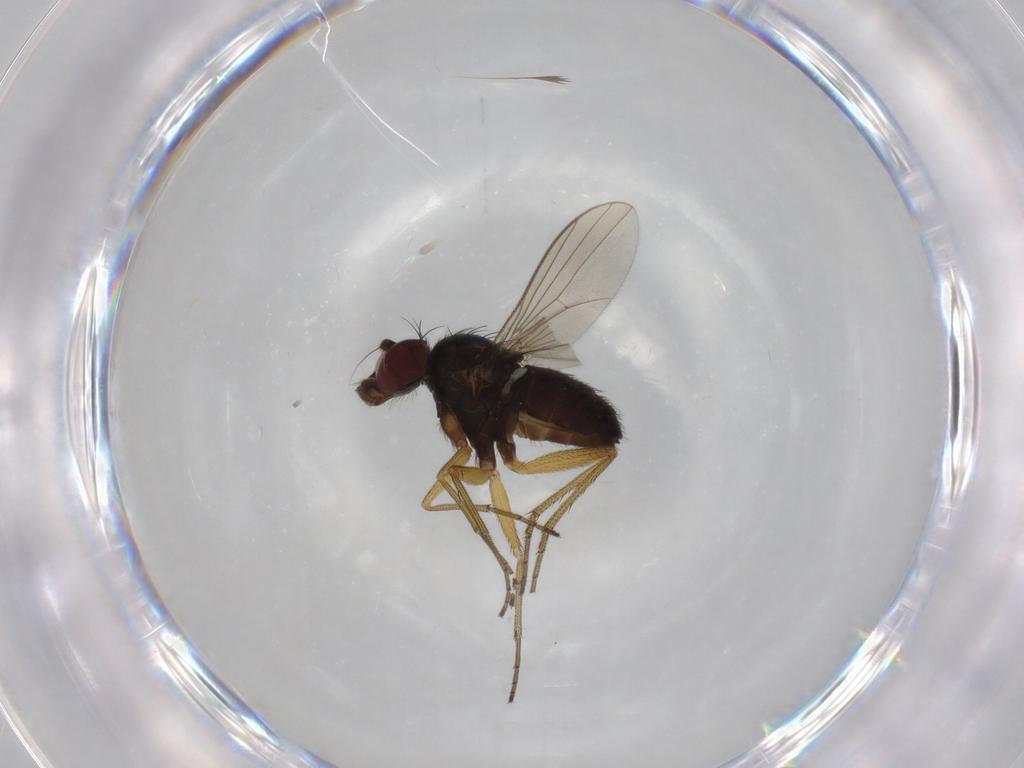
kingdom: Animalia
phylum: Arthropoda
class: Insecta
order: Diptera
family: Dolichopodidae
